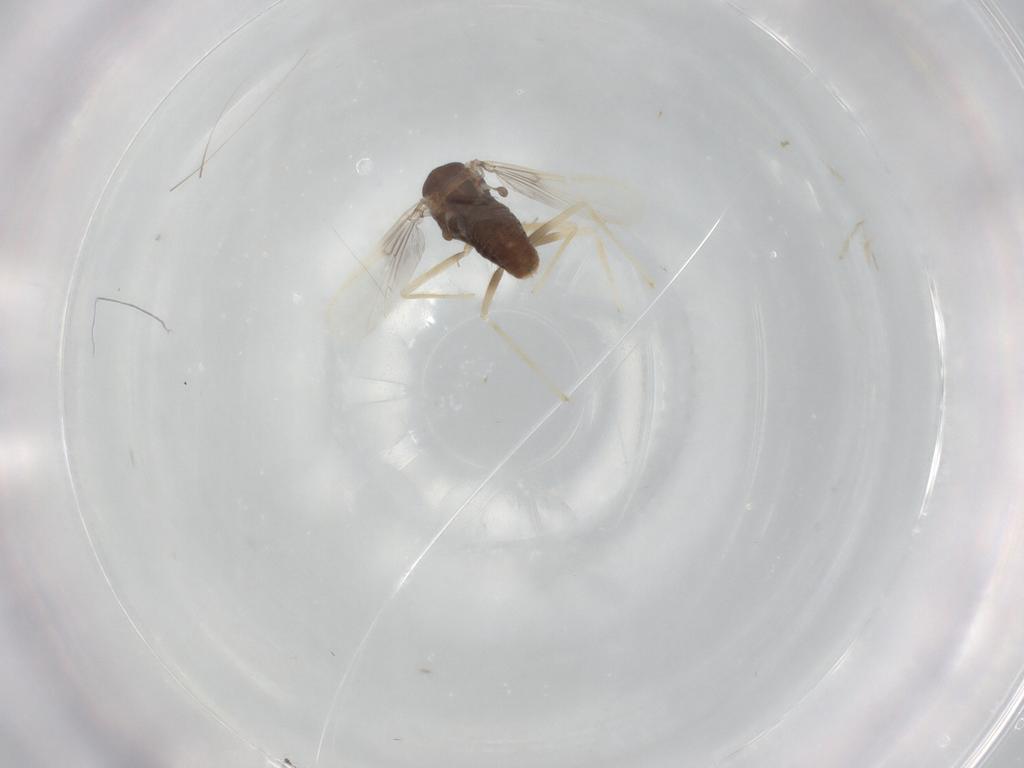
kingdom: Animalia
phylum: Arthropoda
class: Insecta
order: Diptera
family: Chironomidae
